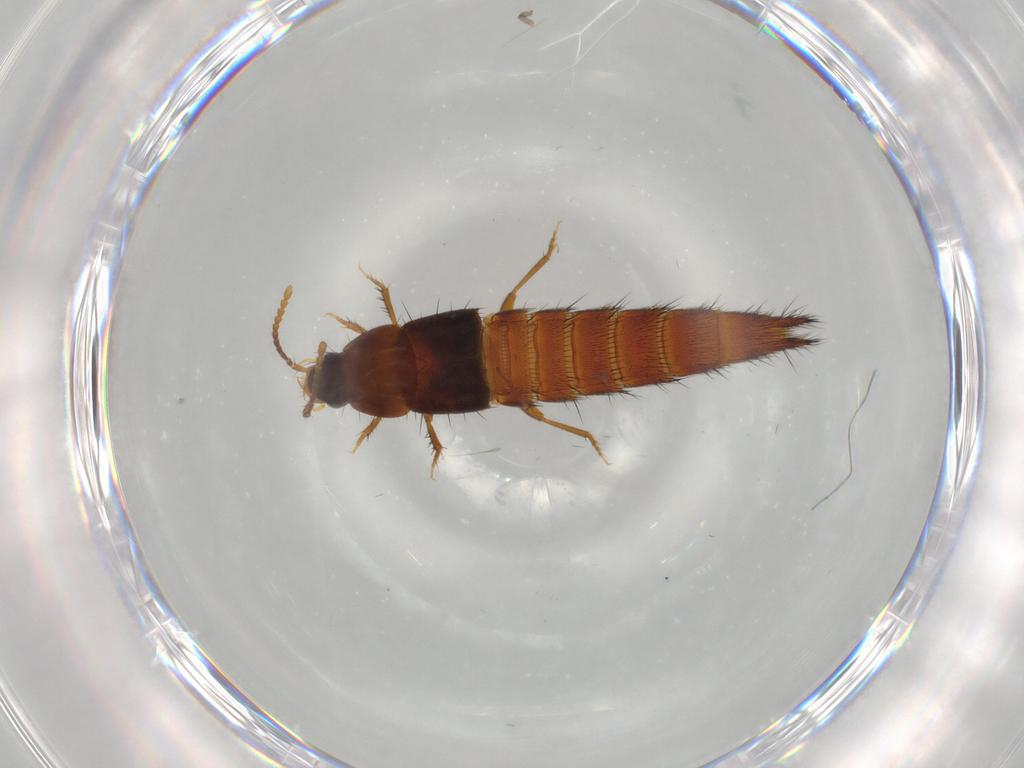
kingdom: Animalia
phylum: Arthropoda
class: Insecta
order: Coleoptera
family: Staphylinidae
